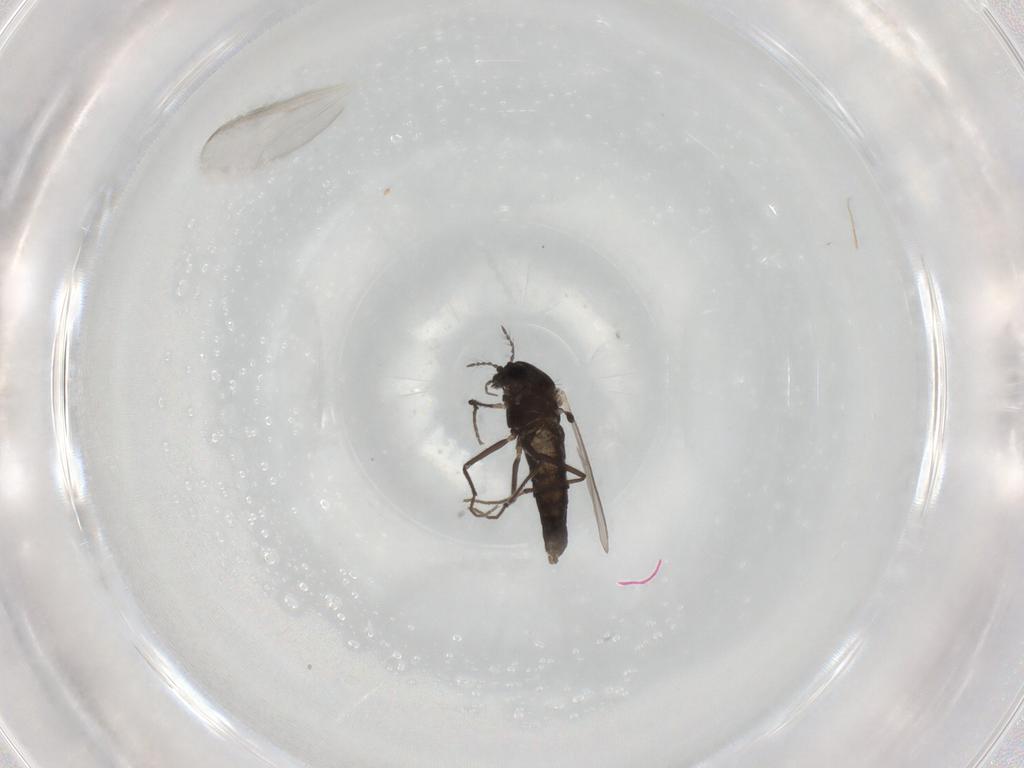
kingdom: Animalia
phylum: Arthropoda
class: Insecta
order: Diptera
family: Chironomidae
